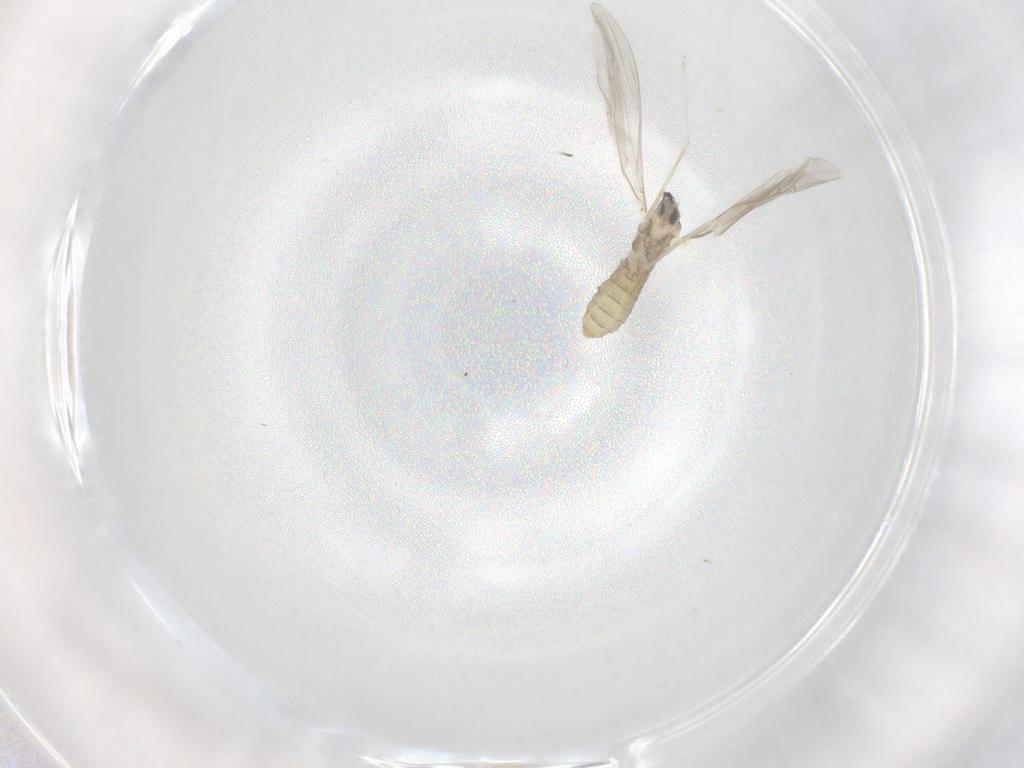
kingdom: Animalia
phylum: Arthropoda
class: Insecta
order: Diptera
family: Cecidomyiidae
